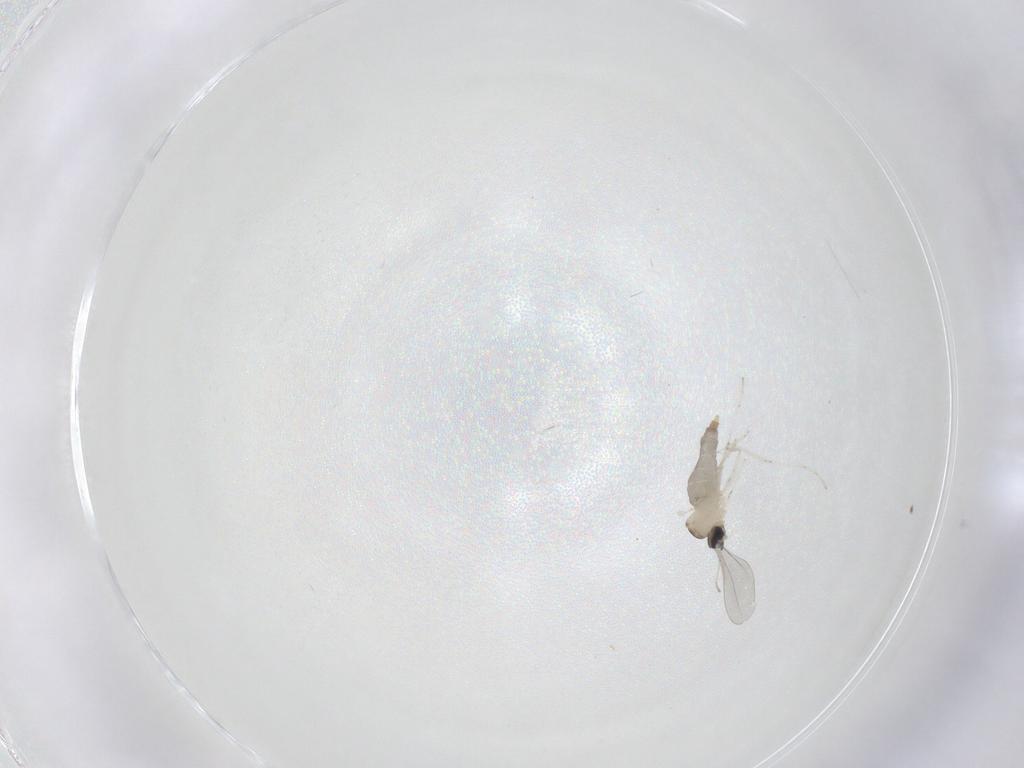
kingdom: Animalia
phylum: Arthropoda
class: Insecta
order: Diptera
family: Cecidomyiidae
